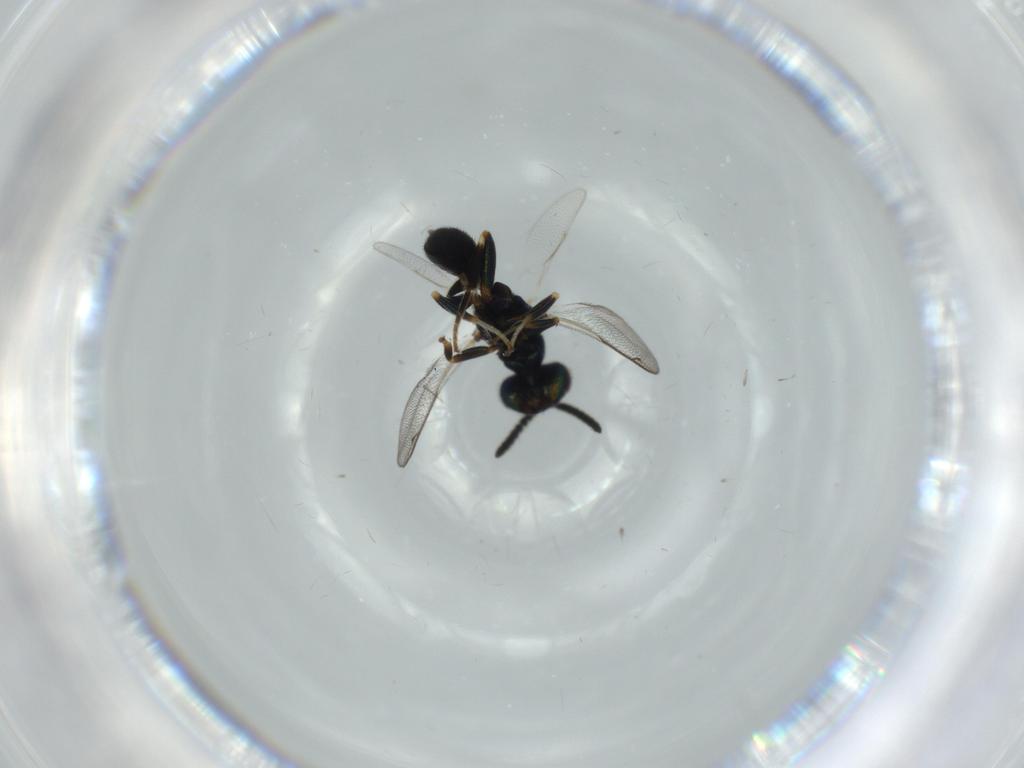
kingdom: Animalia
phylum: Arthropoda
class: Insecta
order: Hymenoptera
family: Cleonyminae
